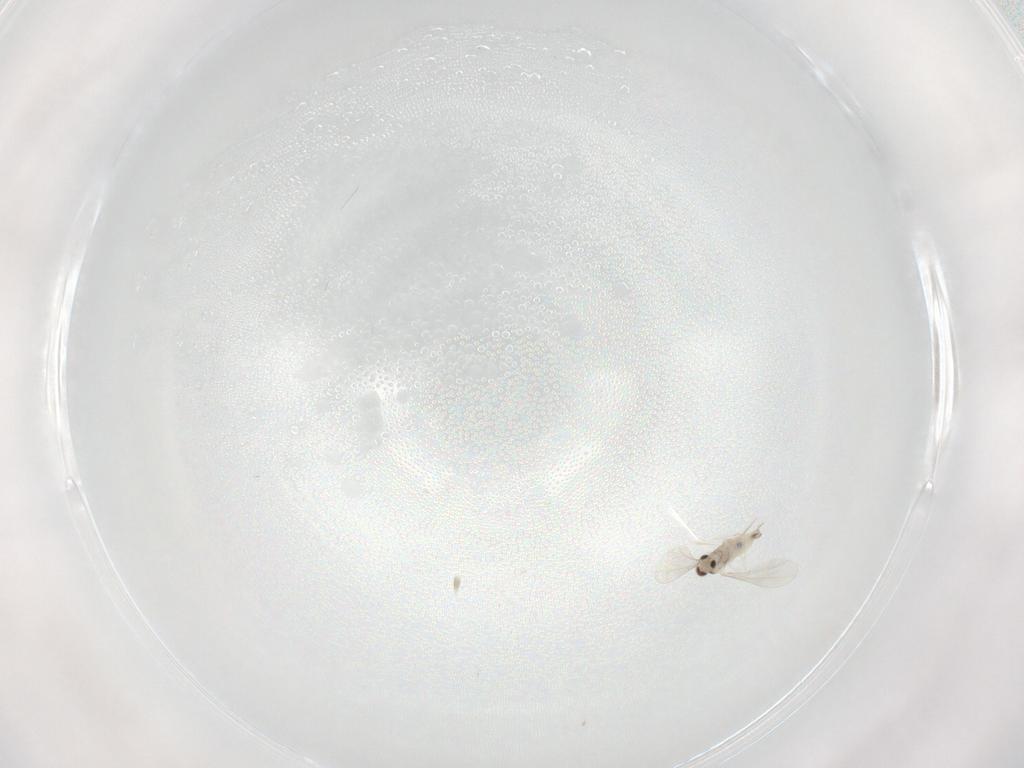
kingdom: Animalia
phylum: Arthropoda
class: Insecta
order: Diptera
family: Cecidomyiidae
